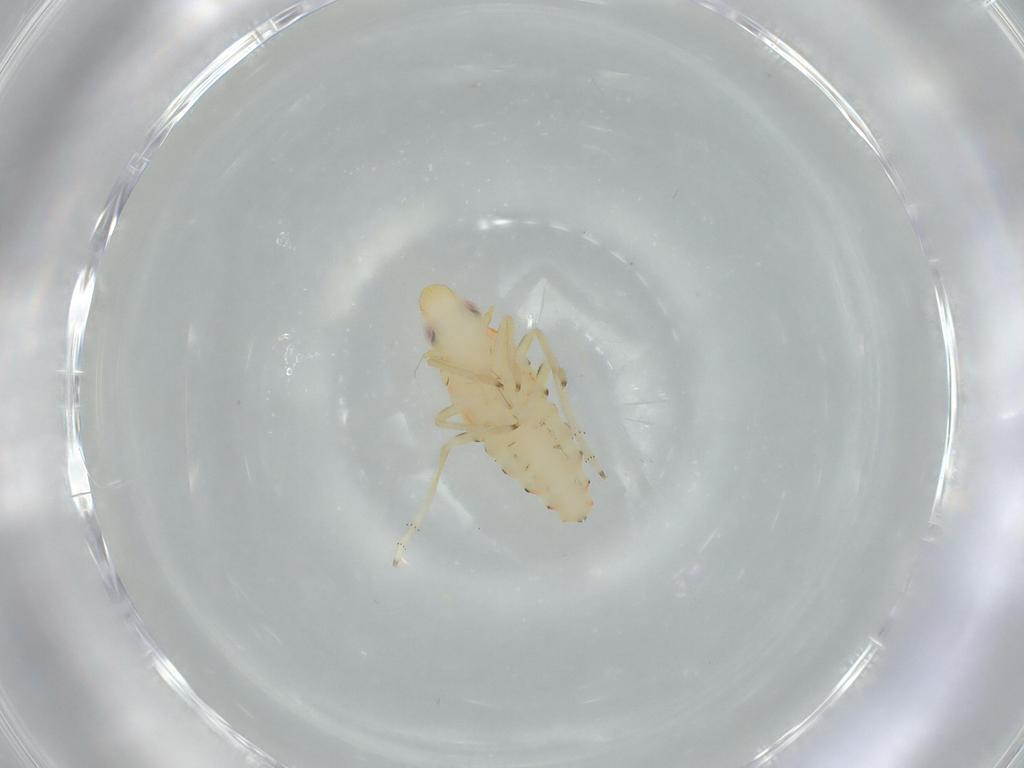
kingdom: Animalia
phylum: Arthropoda
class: Insecta
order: Hemiptera
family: Tropiduchidae
